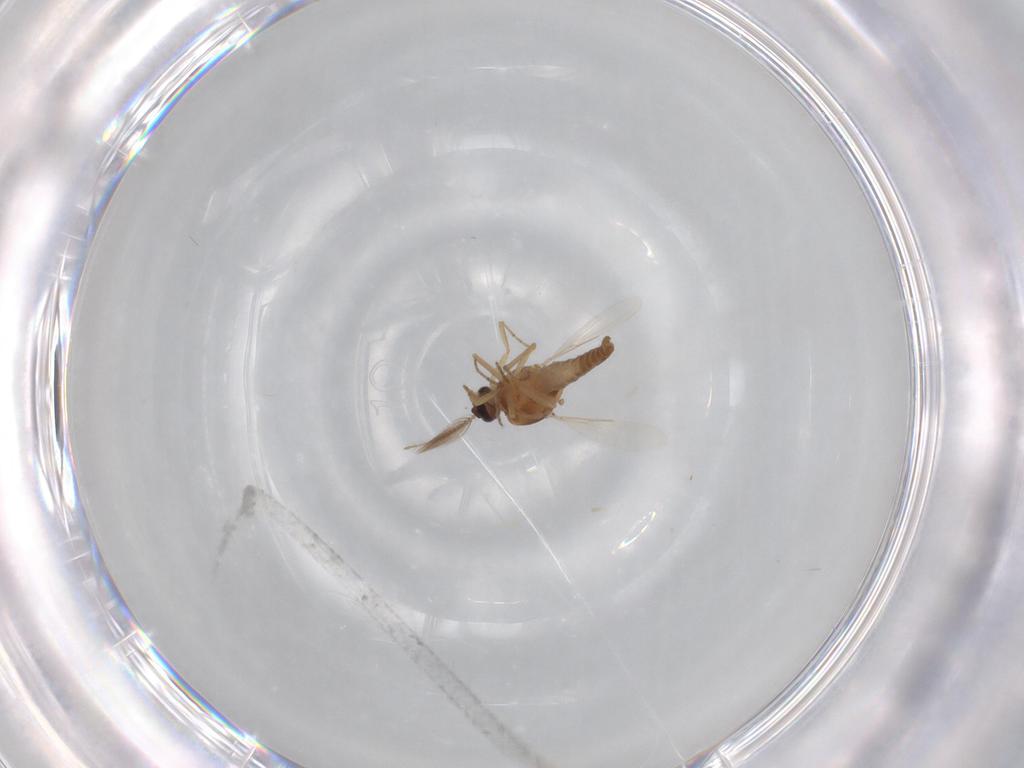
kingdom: Animalia
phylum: Arthropoda
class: Insecta
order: Diptera
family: Ceratopogonidae
